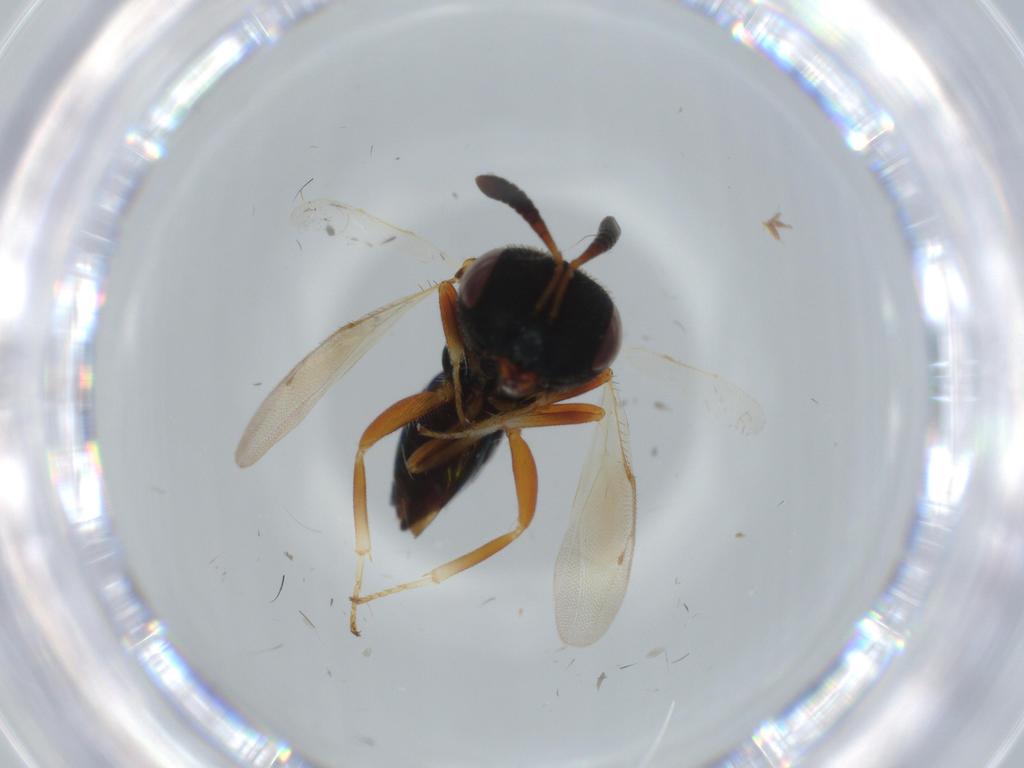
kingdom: Animalia
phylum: Arthropoda
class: Insecta
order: Hymenoptera
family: Agaonidae
